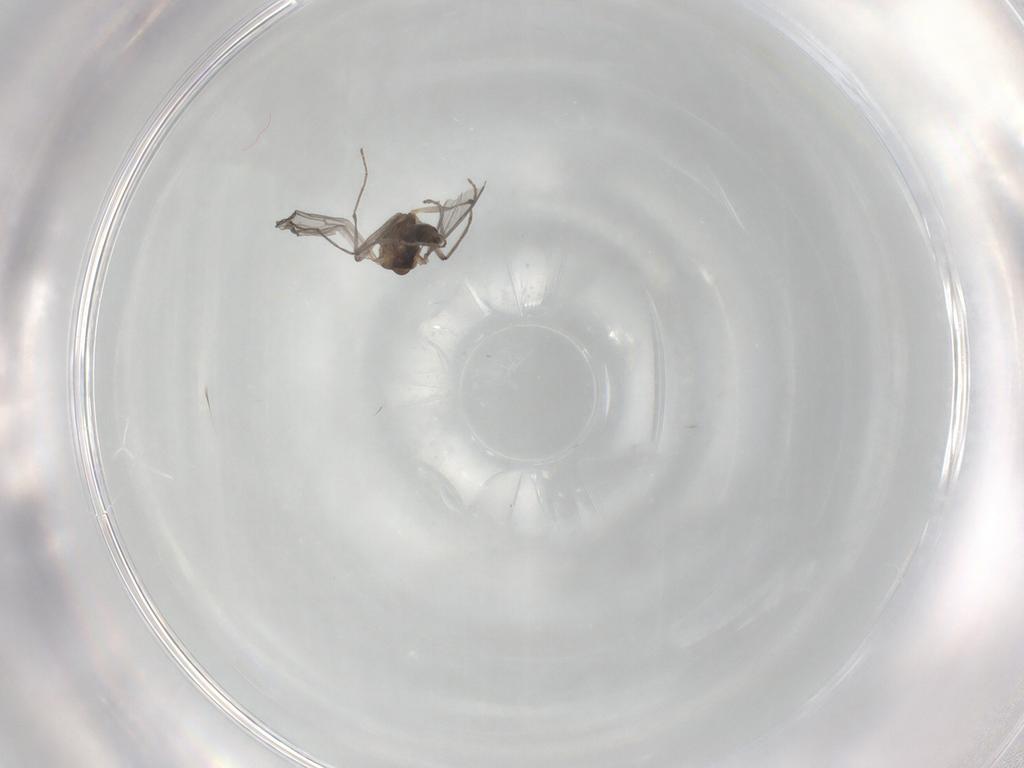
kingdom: Animalia
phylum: Arthropoda
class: Insecta
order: Diptera
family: Chironomidae
